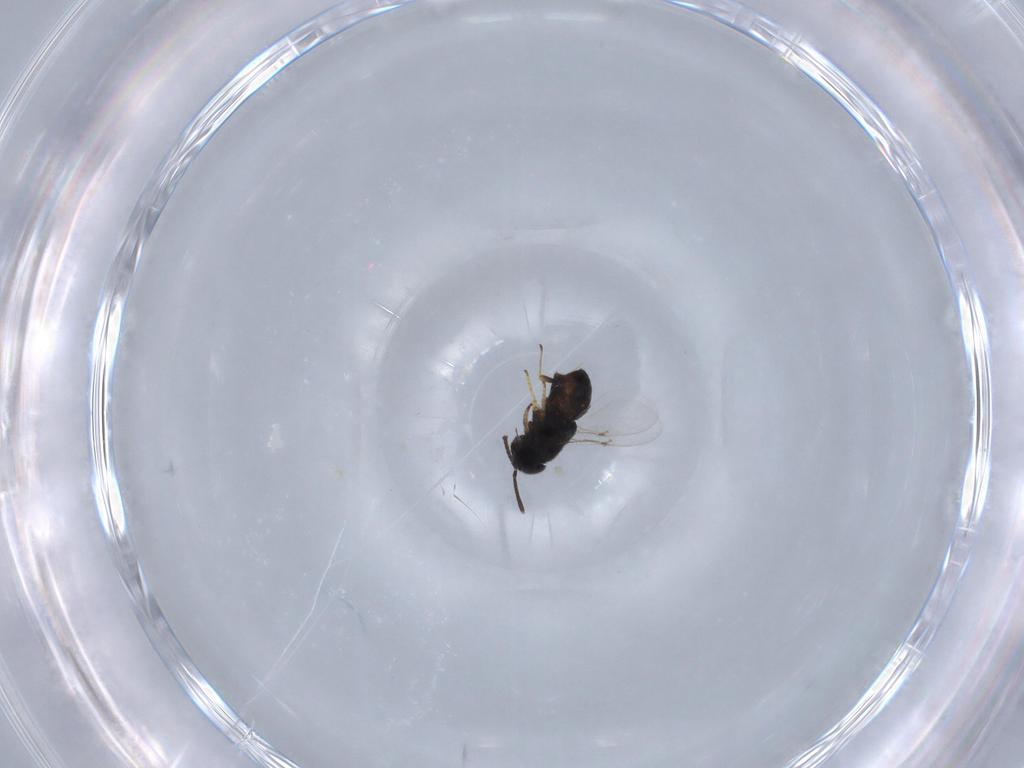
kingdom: Animalia
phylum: Arthropoda
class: Insecta
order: Hymenoptera
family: Encyrtidae
